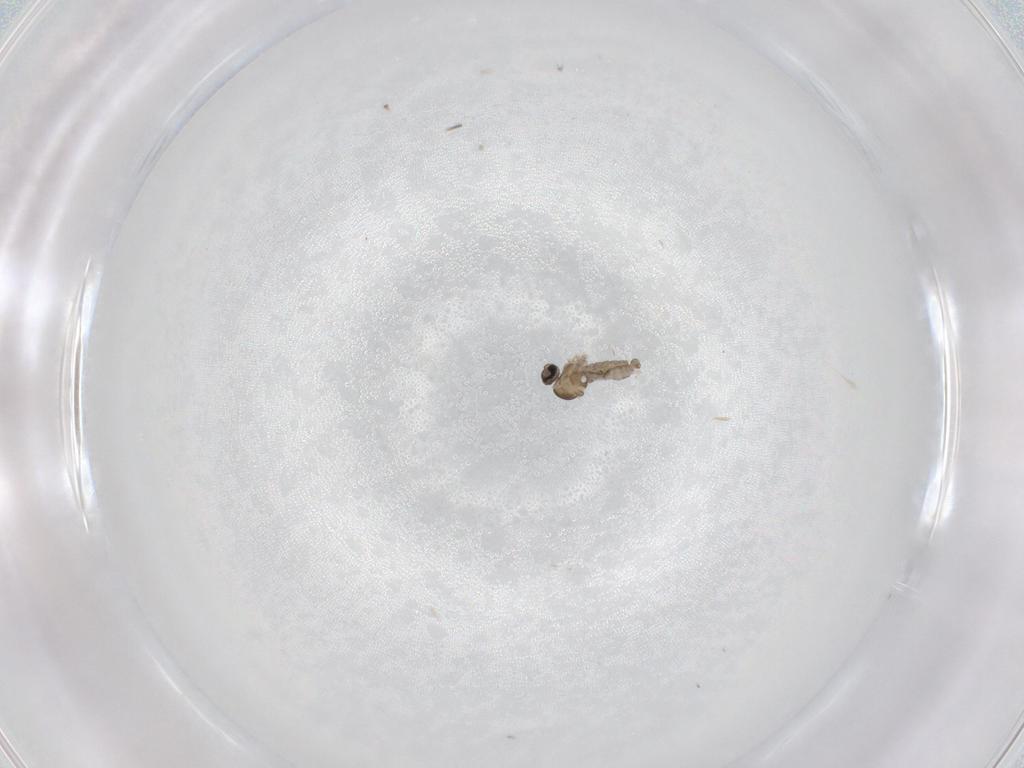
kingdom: Animalia
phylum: Arthropoda
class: Insecta
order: Diptera
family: Cecidomyiidae
